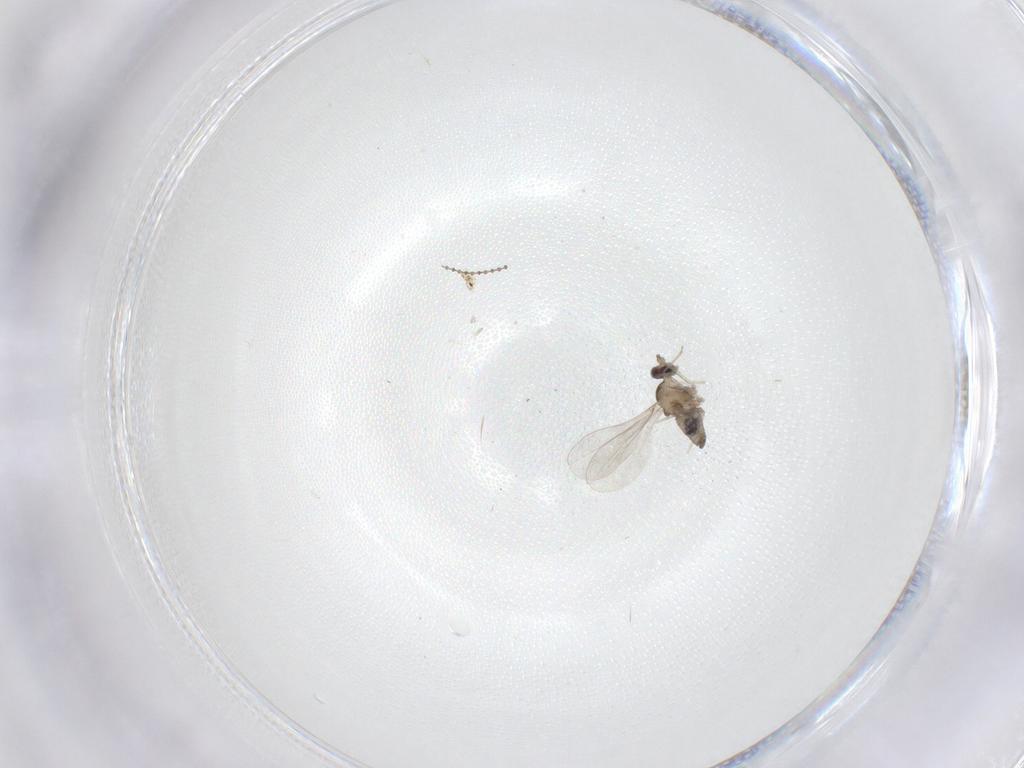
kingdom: Animalia
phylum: Arthropoda
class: Insecta
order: Diptera
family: Cecidomyiidae
